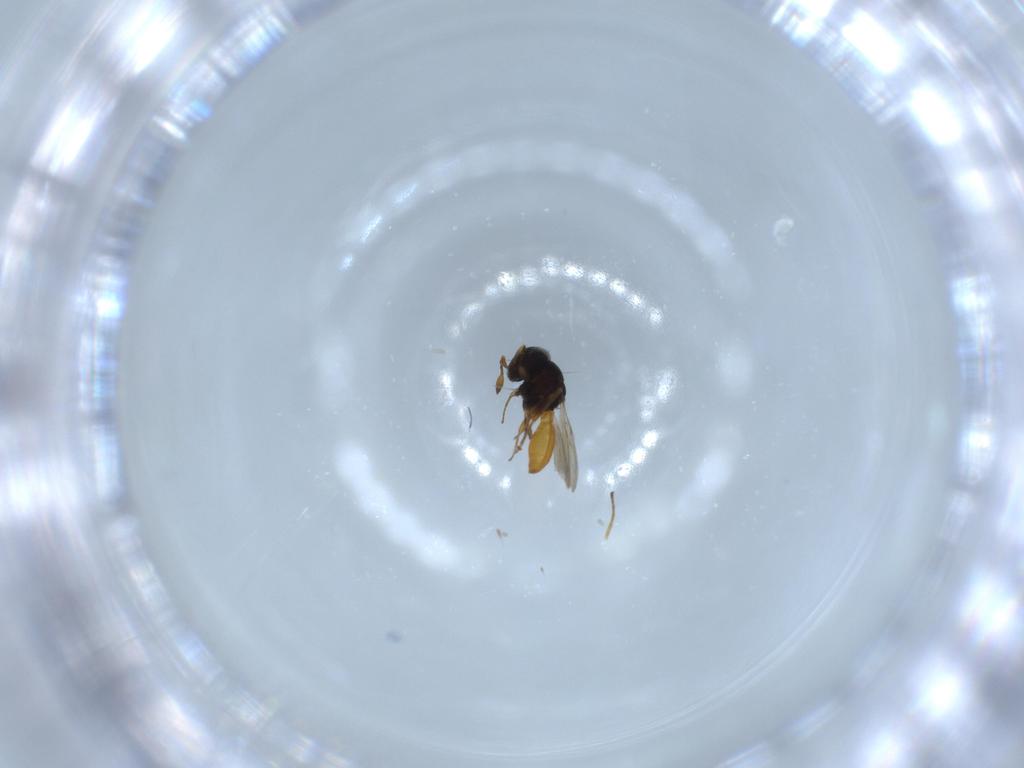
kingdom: Animalia
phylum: Arthropoda
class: Insecta
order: Hymenoptera
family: Scelionidae
